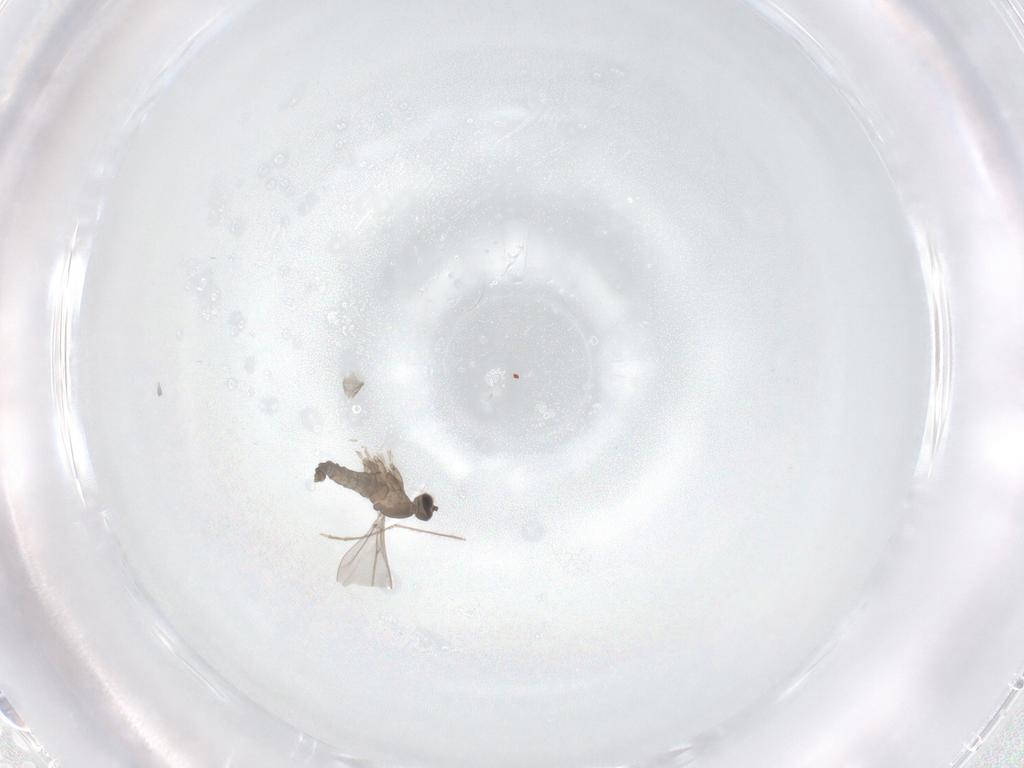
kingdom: Animalia
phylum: Arthropoda
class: Insecta
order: Diptera
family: Cecidomyiidae
